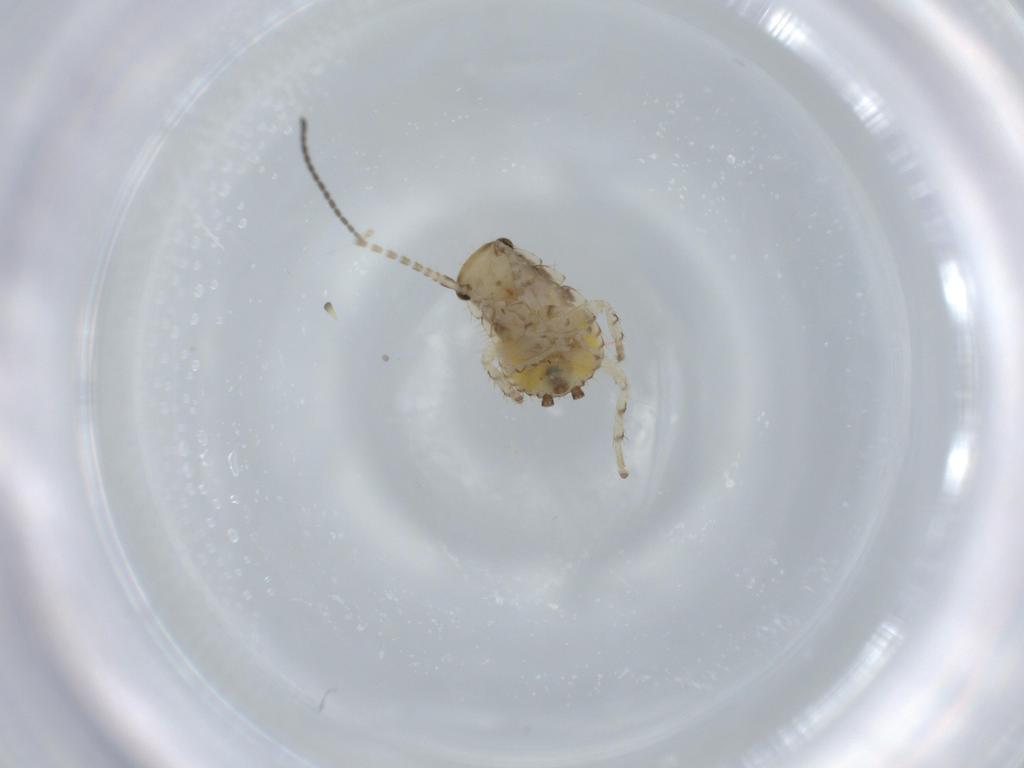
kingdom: Animalia
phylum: Arthropoda
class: Insecta
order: Blattodea
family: Ectobiidae
